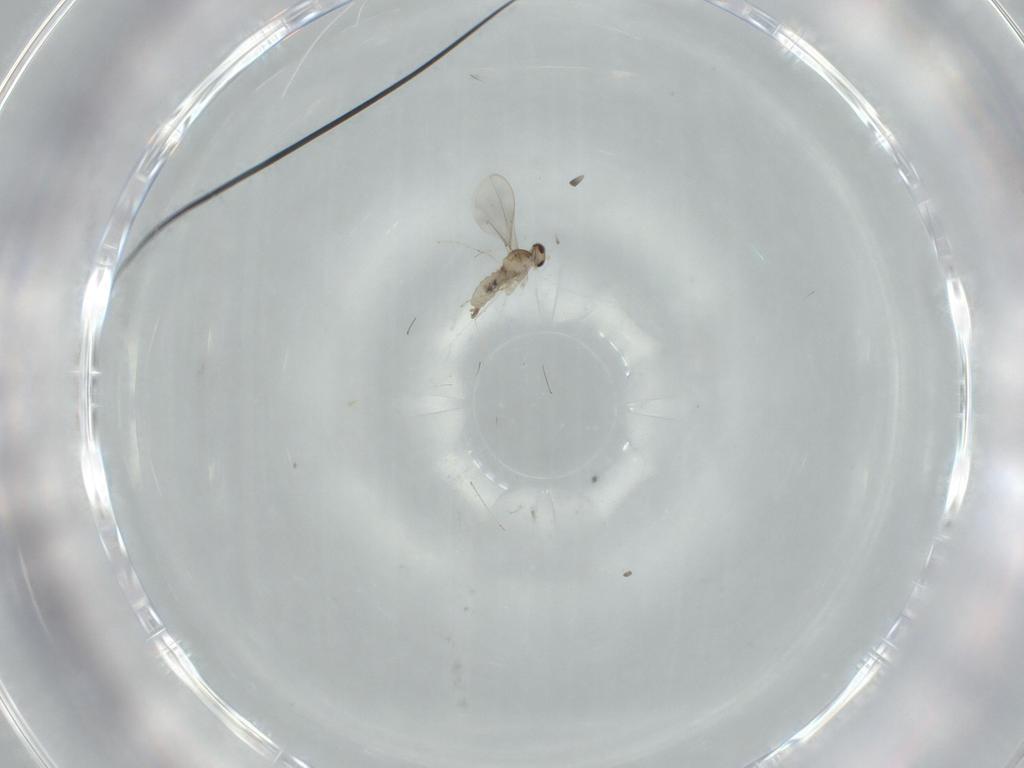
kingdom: Animalia
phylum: Arthropoda
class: Insecta
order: Diptera
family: Cecidomyiidae
